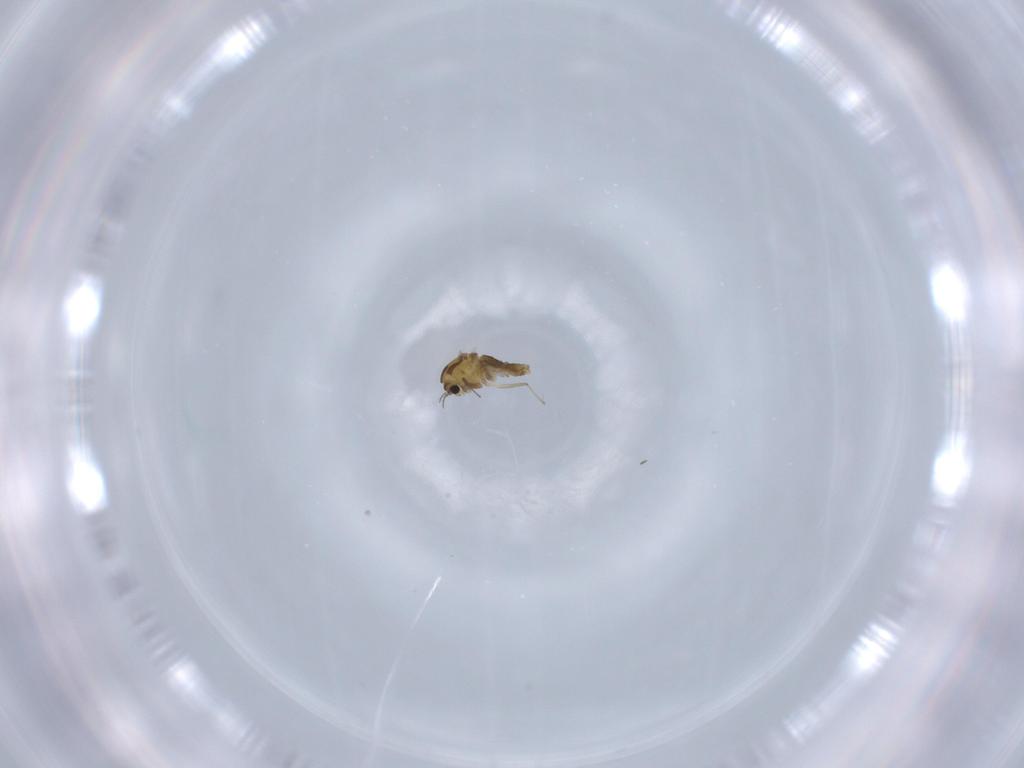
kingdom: Animalia
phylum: Arthropoda
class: Insecta
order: Diptera
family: Chironomidae
